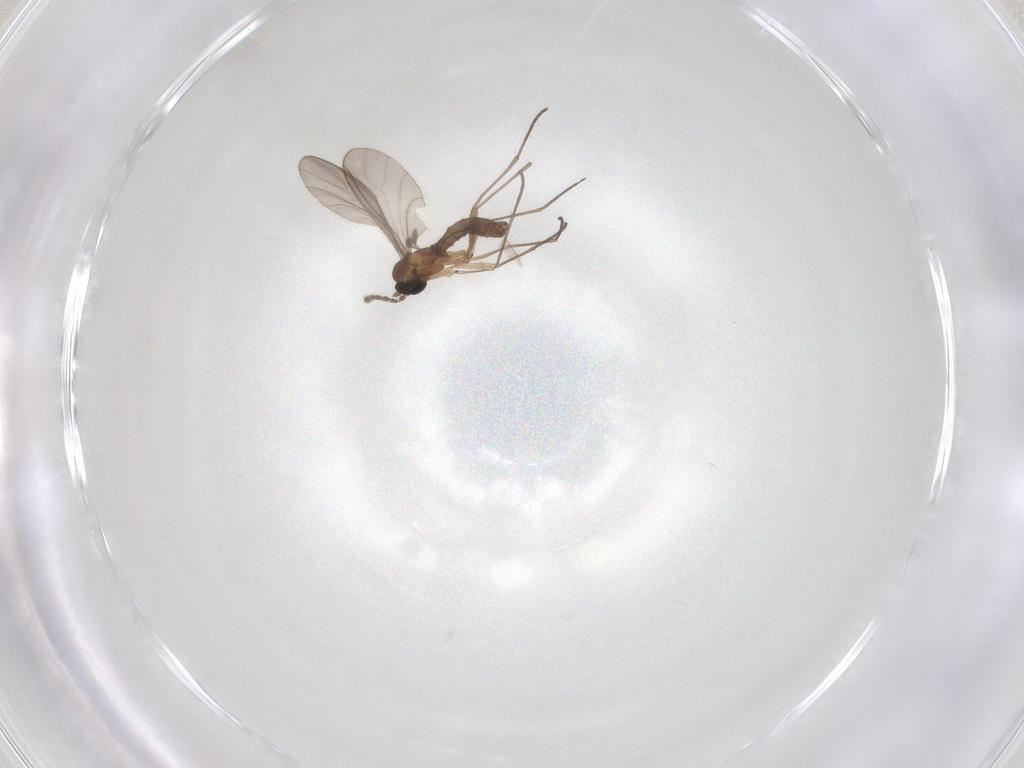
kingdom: Animalia
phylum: Arthropoda
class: Insecta
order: Diptera
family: Sciaridae
